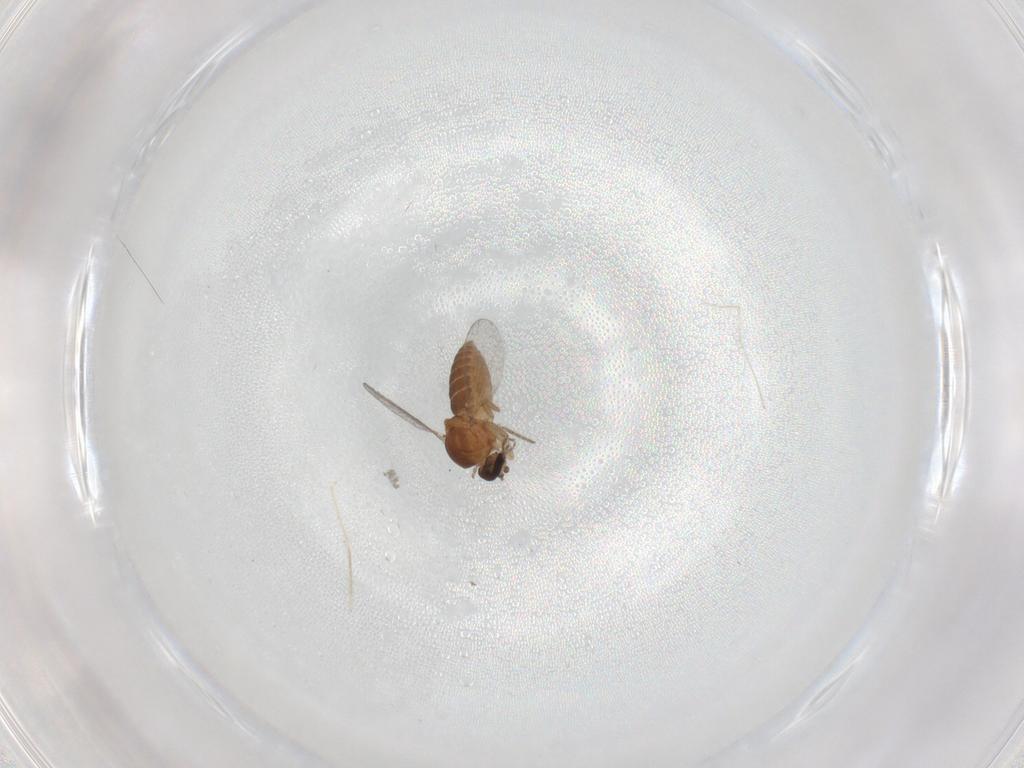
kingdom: Animalia
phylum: Arthropoda
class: Insecta
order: Diptera
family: Ceratopogonidae
